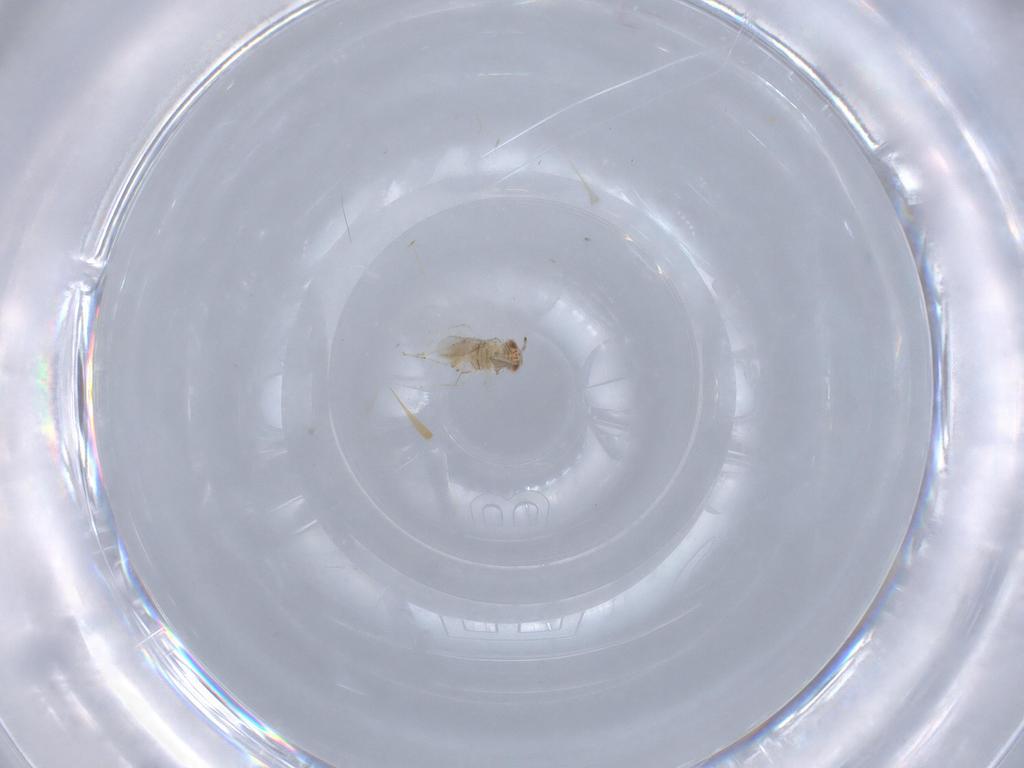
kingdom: Animalia
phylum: Arthropoda
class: Insecta
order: Hymenoptera
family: Aphelinidae
